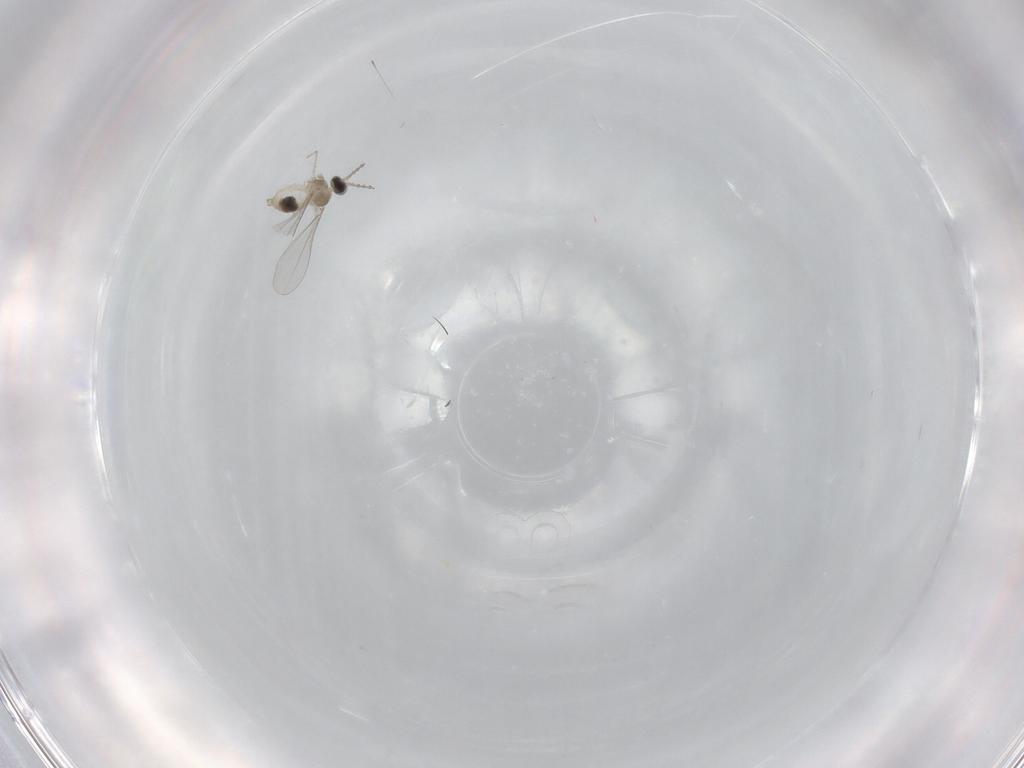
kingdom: Animalia
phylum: Arthropoda
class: Insecta
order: Diptera
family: Cecidomyiidae
